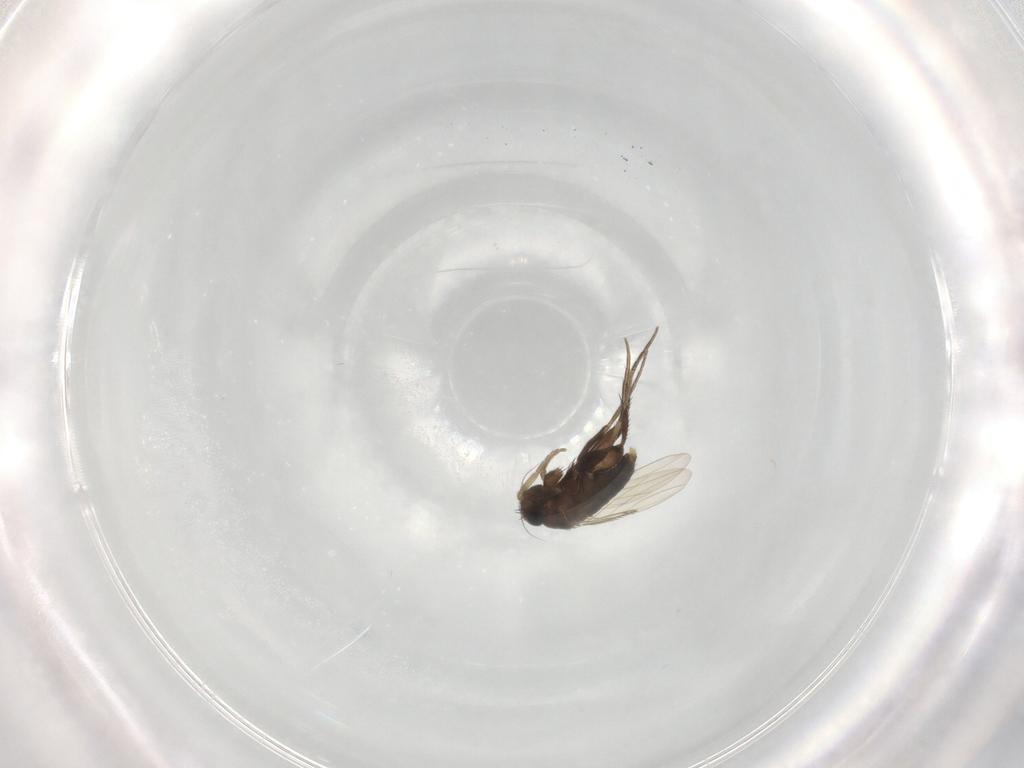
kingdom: Animalia
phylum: Arthropoda
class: Insecta
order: Diptera
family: Phoridae
